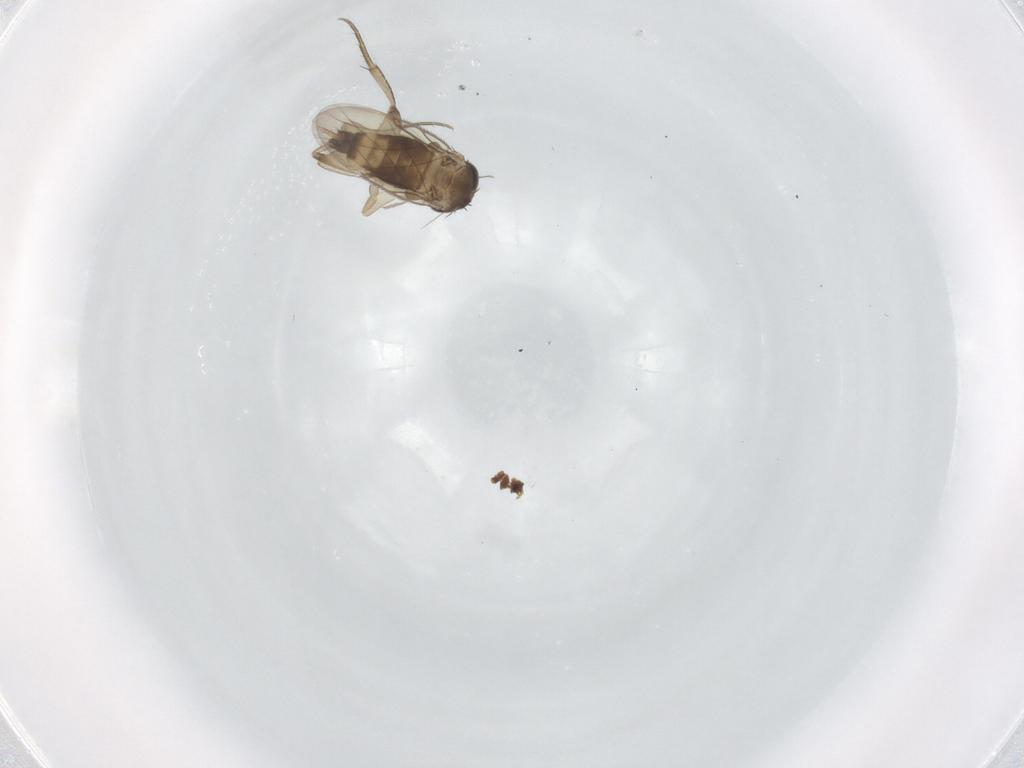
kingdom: Animalia
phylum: Arthropoda
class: Insecta
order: Diptera
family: Phoridae
